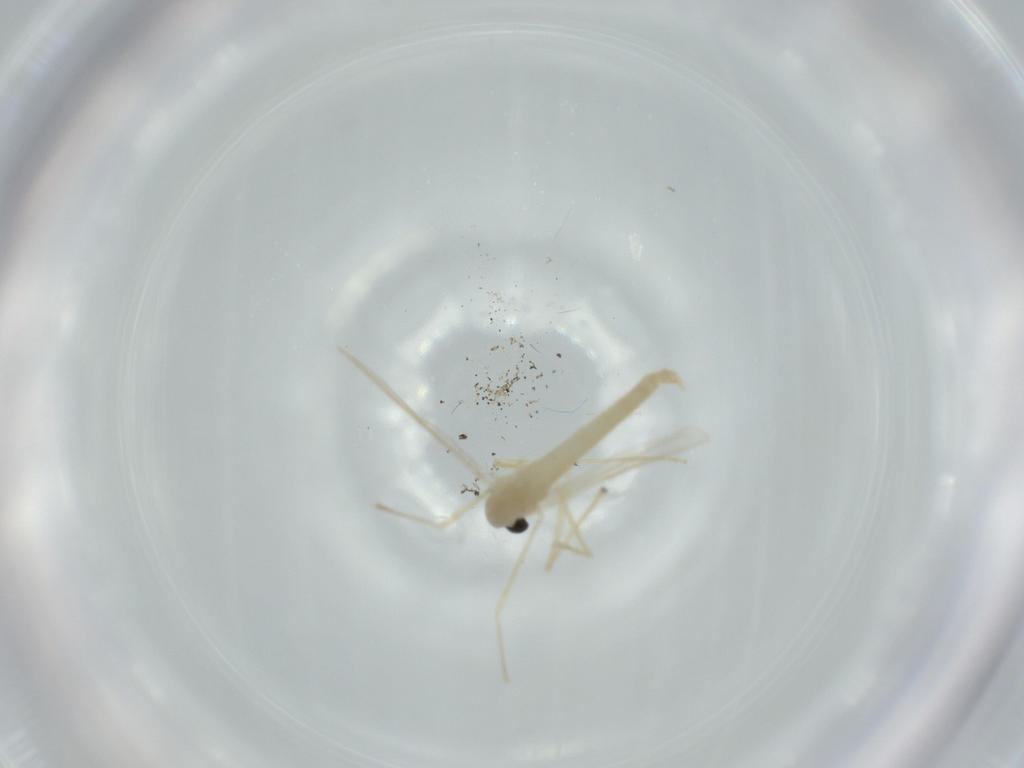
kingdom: Animalia
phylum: Arthropoda
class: Insecta
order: Diptera
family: Chironomidae
